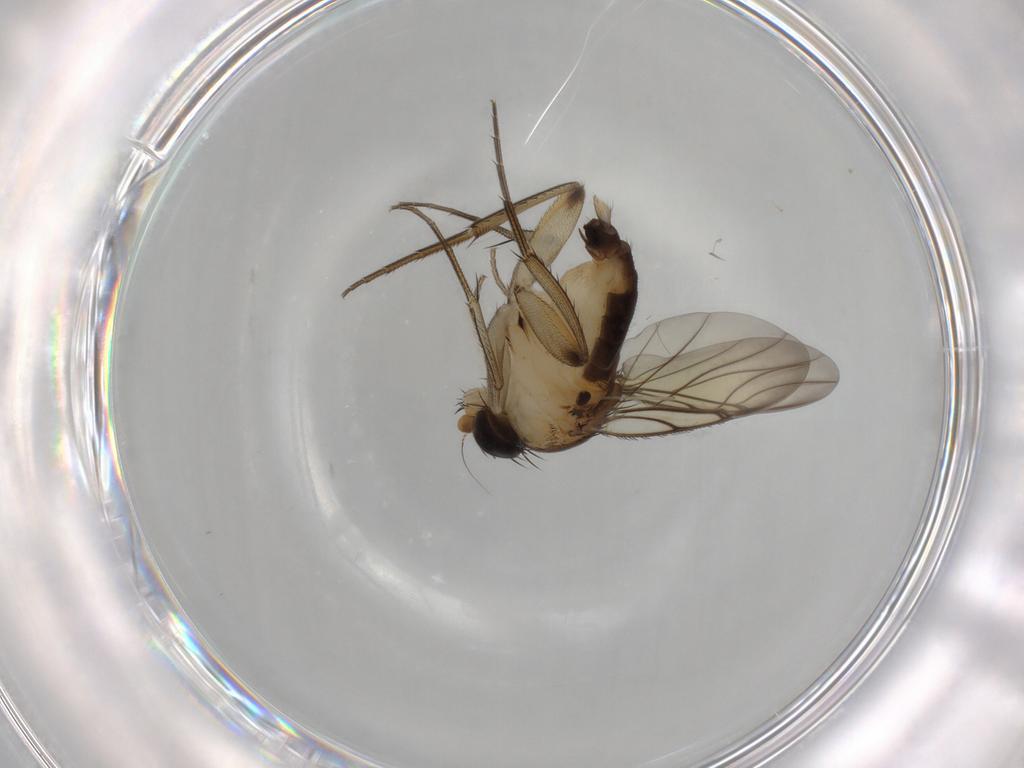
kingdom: Animalia
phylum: Arthropoda
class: Insecta
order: Diptera
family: Phoridae
